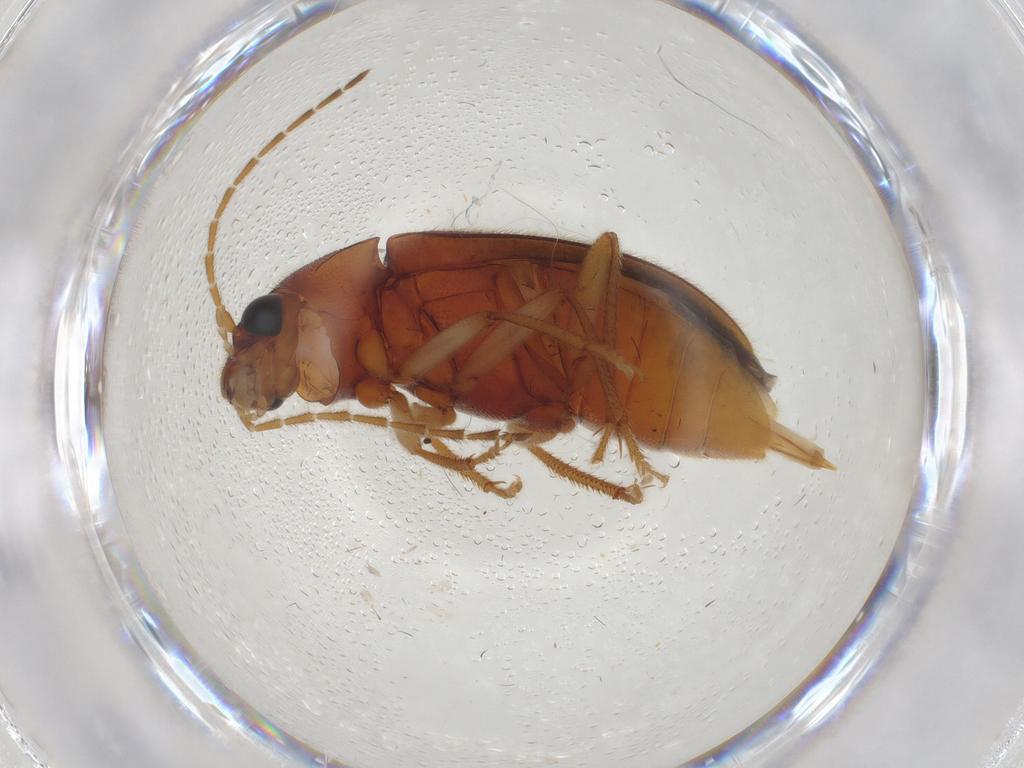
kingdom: Animalia
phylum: Arthropoda
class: Insecta
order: Coleoptera
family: Ptilodactylidae
